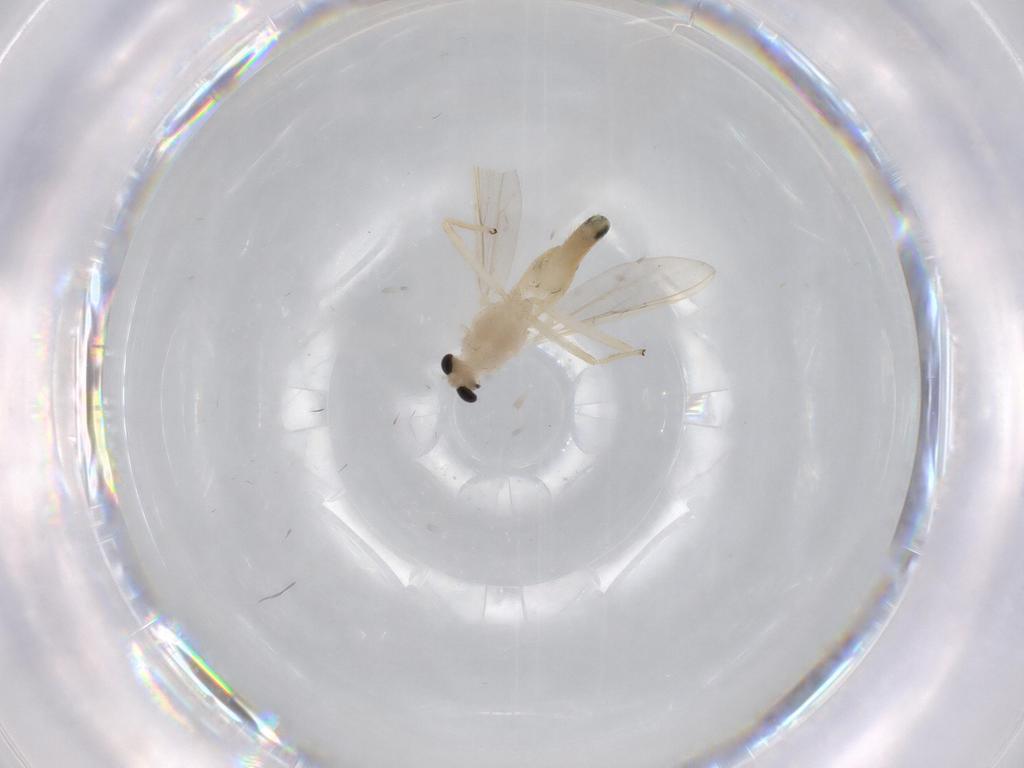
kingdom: Animalia
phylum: Arthropoda
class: Insecta
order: Diptera
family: Chironomidae
